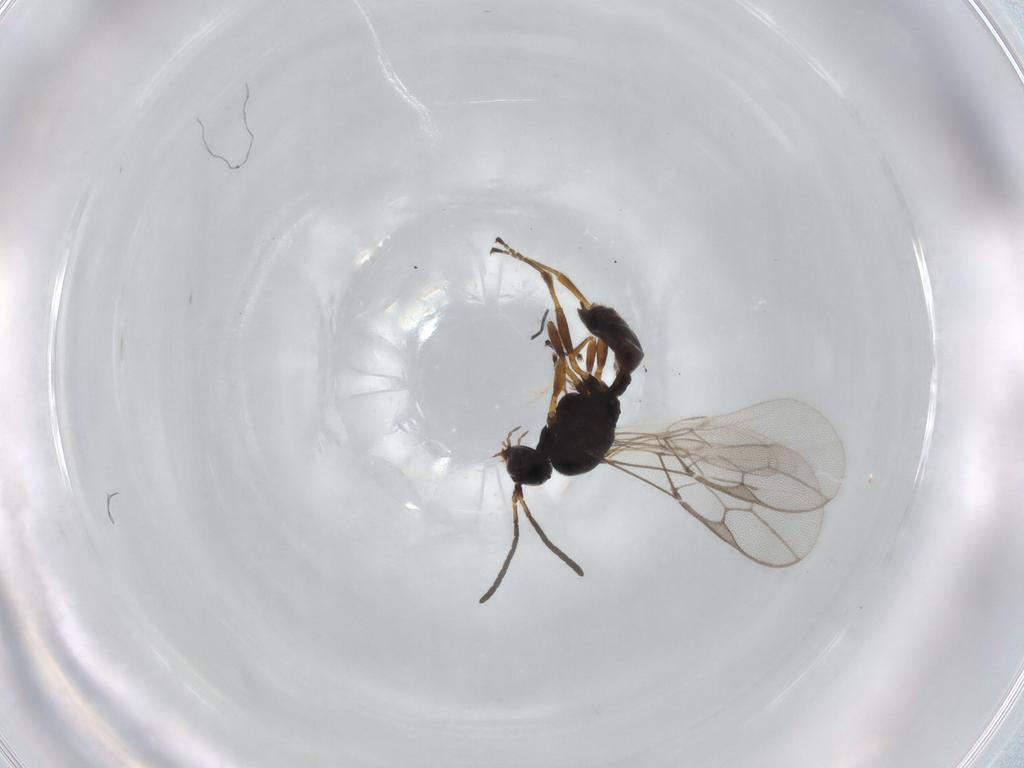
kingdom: Animalia
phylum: Arthropoda
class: Insecta
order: Hymenoptera
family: Braconidae
